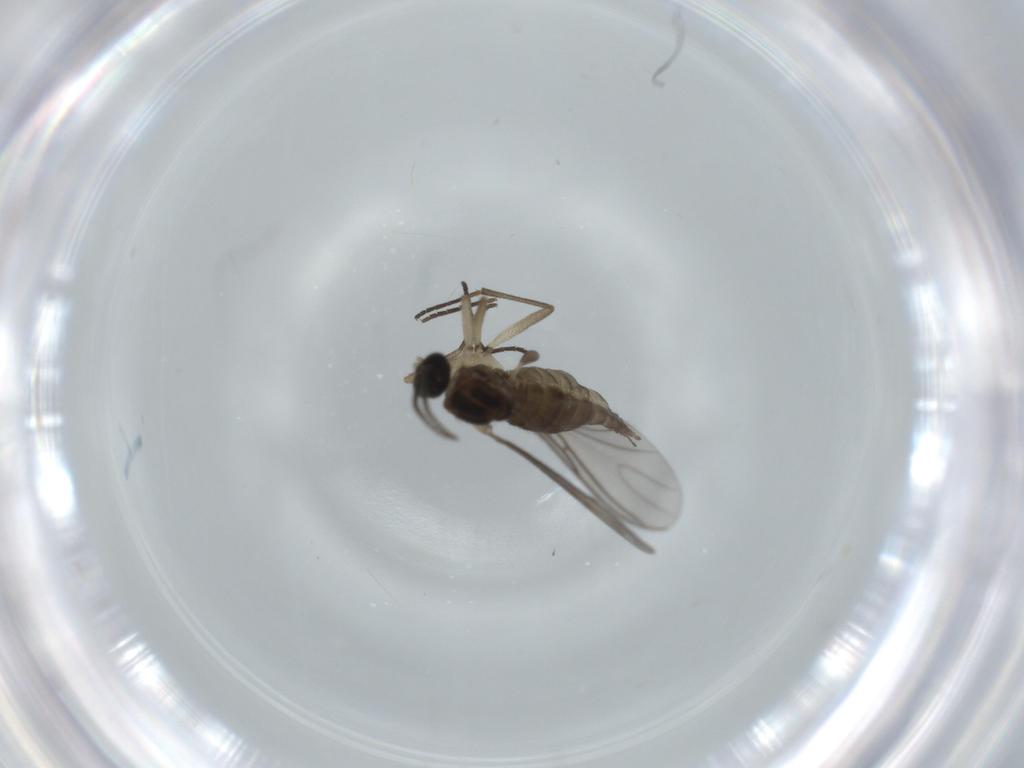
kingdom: Animalia
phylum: Arthropoda
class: Insecta
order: Diptera
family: Sciaridae
